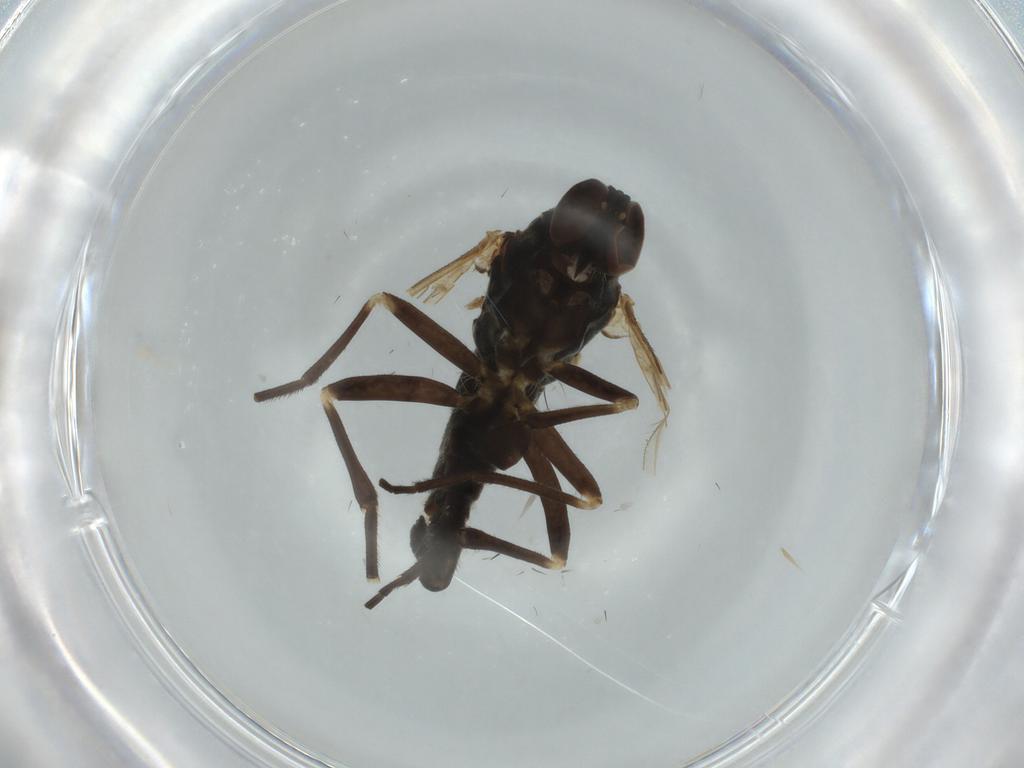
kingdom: Animalia
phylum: Arthropoda
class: Insecta
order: Diptera
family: Empididae
